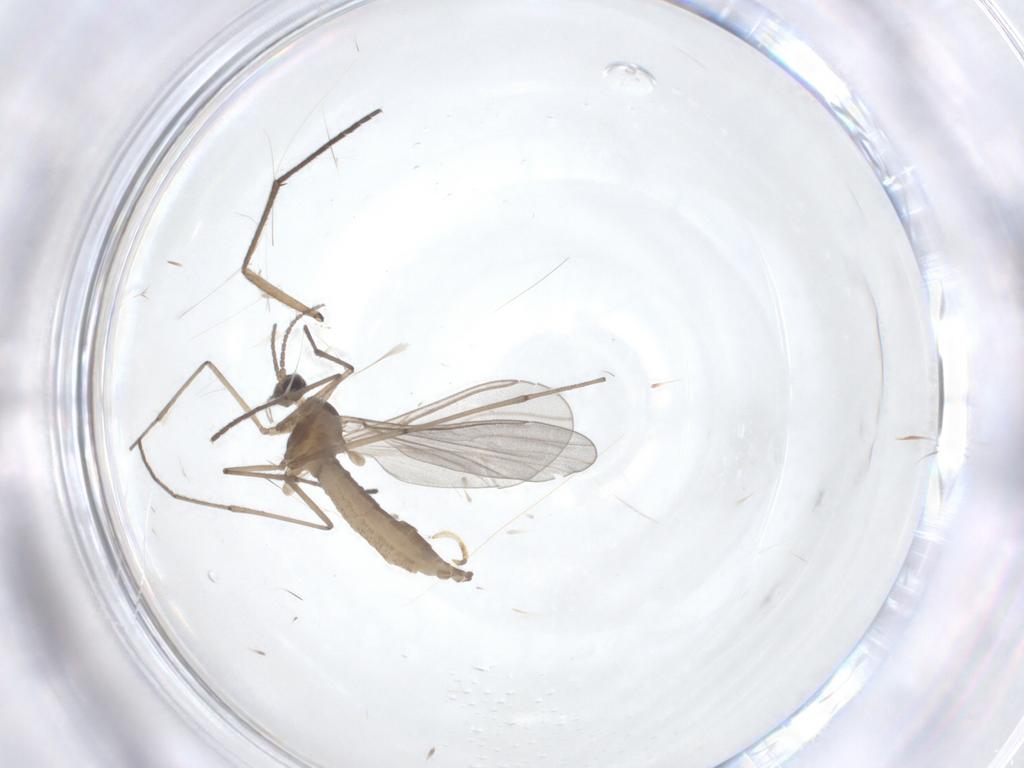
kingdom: Animalia
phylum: Arthropoda
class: Insecta
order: Diptera
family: Cecidomyiidae
